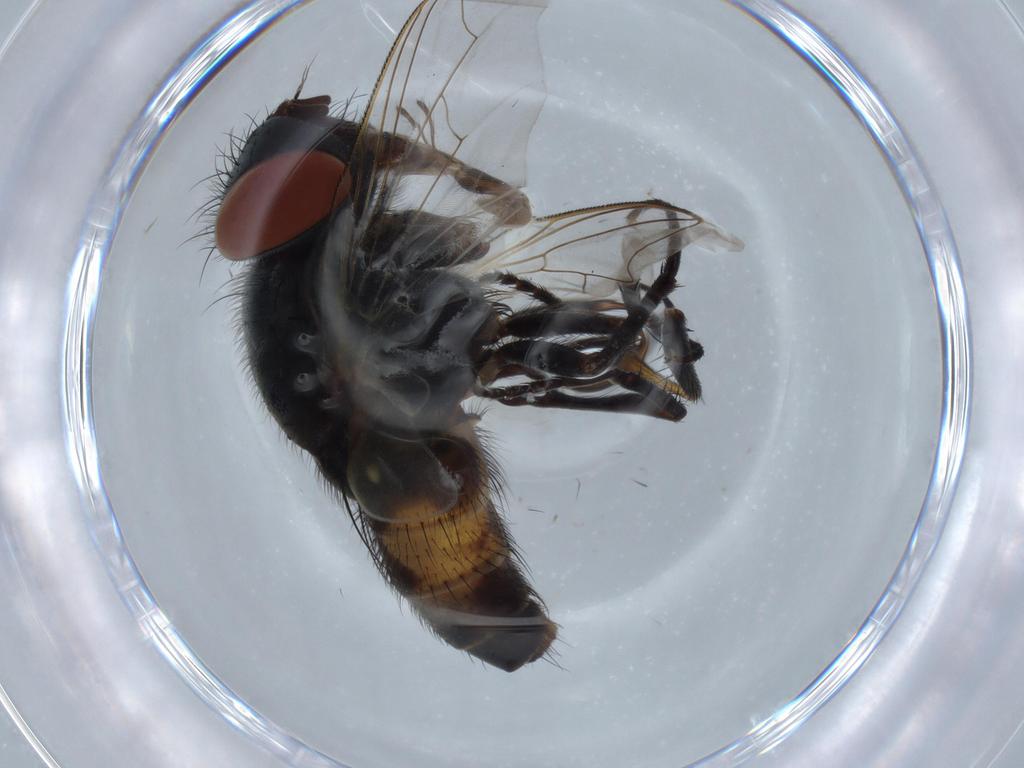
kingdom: Animalia
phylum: Arthropoda
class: Insecta
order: Diptera
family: Sarcophagidae
